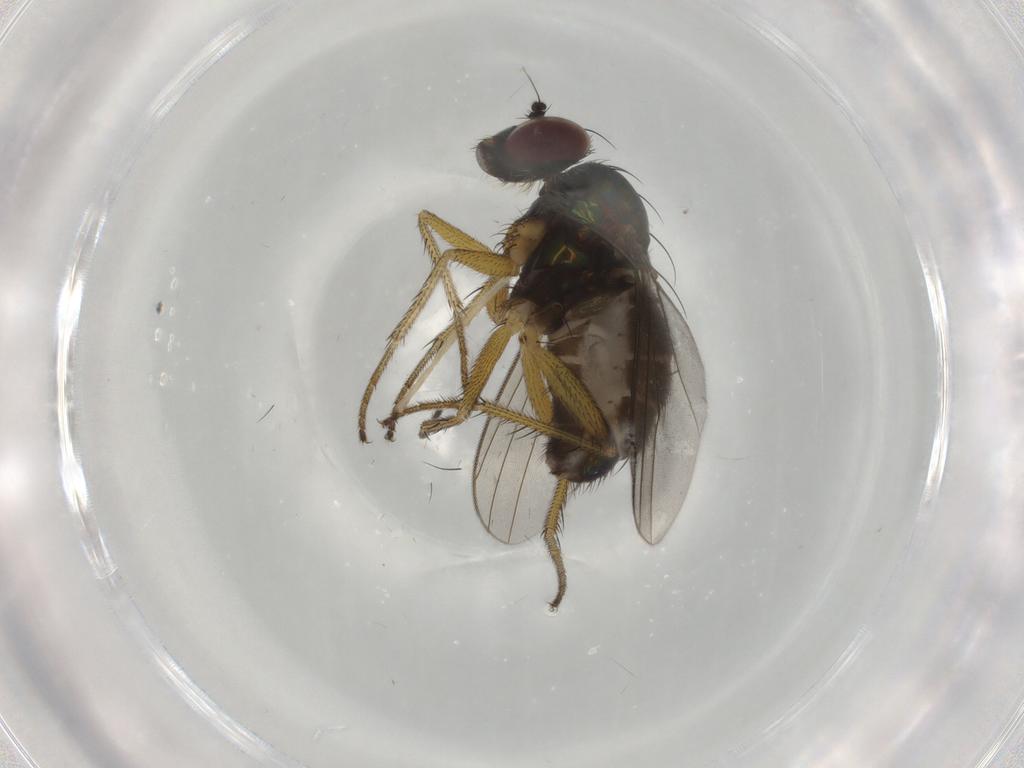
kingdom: Animalia
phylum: Arthropoda
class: Insecta
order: Diptera
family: Dolichopodidae
